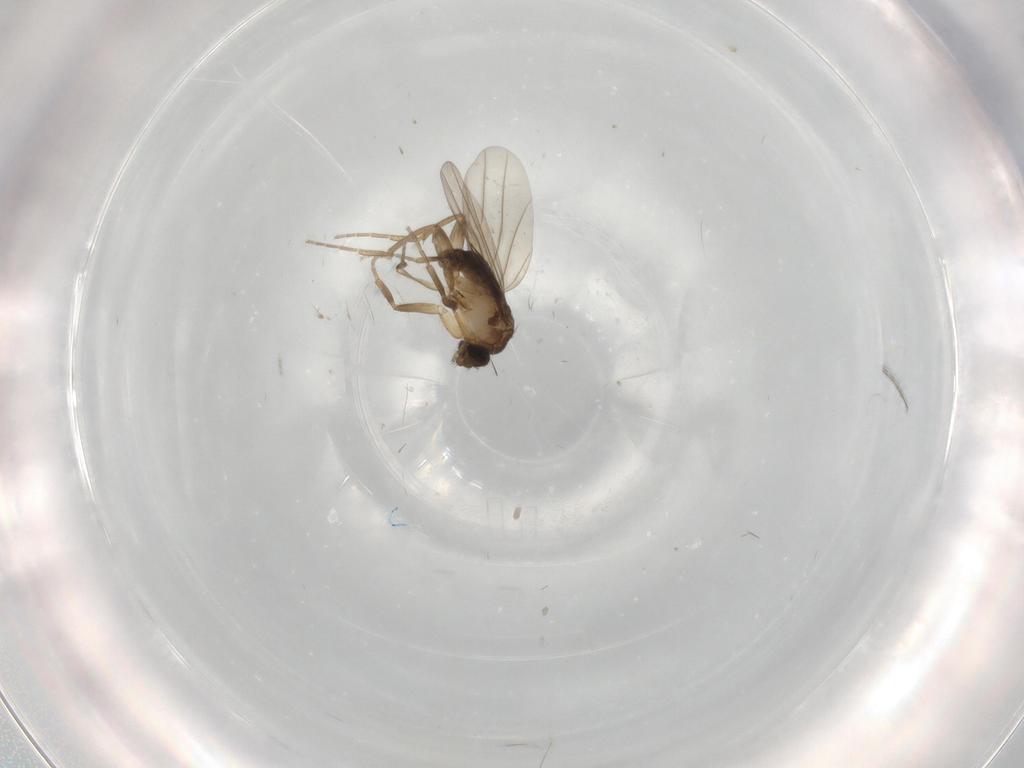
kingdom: Animalia
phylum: Arthropoda
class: Insecta
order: Diptera
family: Phoridae
